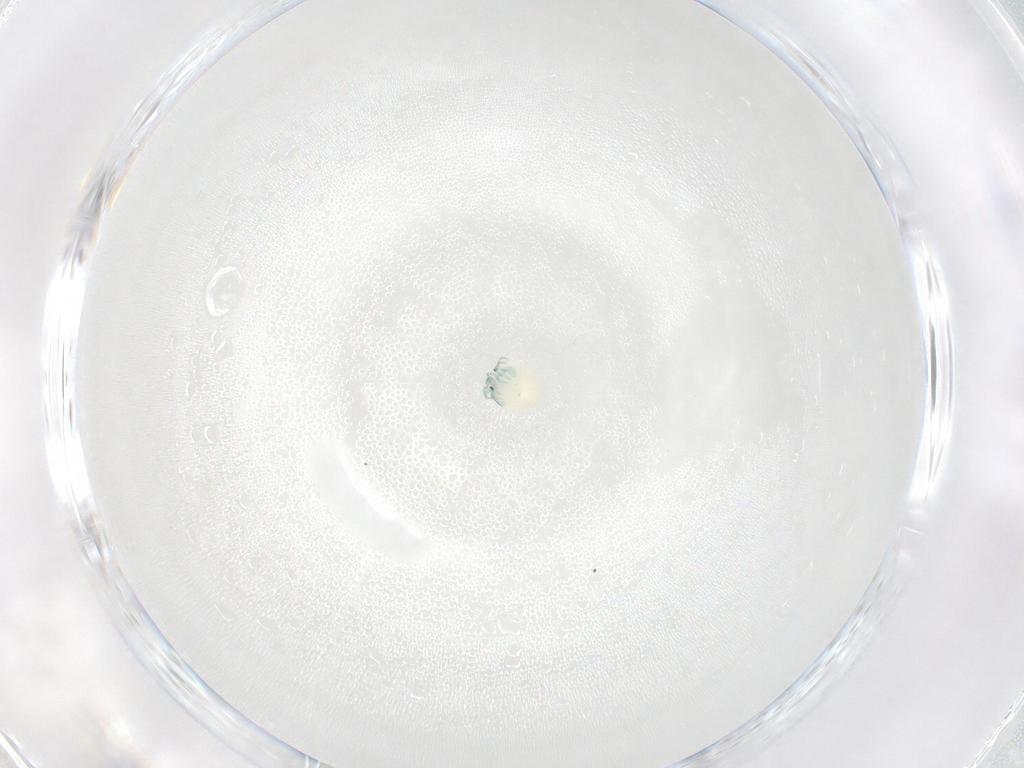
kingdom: Animalia
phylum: Arthropoda
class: Arachnida
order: Trombidiformes
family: Arrenuridae
